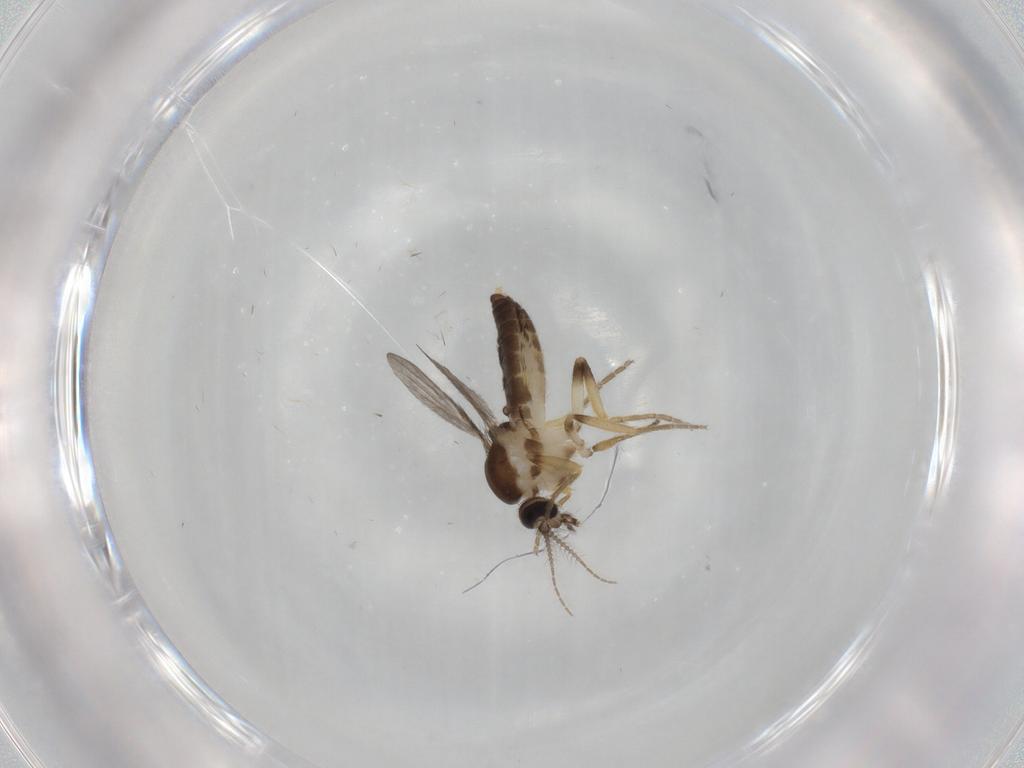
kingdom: Animalia
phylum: Arthropoda
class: Insecta
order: Diptera
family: Ceratopogonidae
